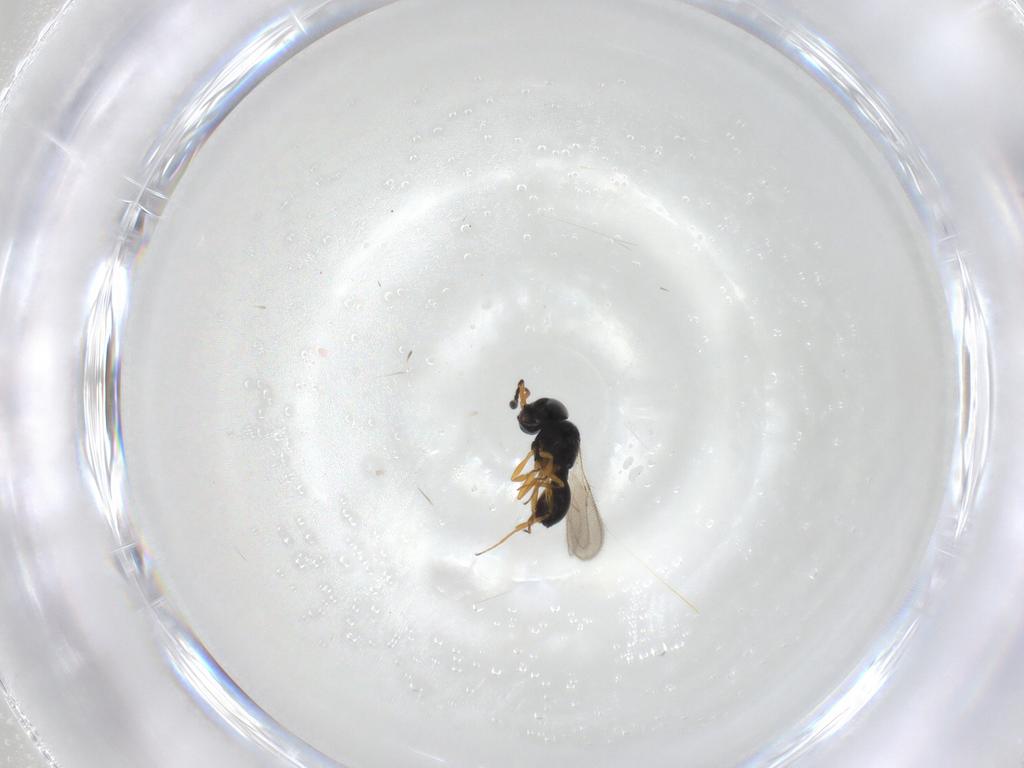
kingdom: Animalia
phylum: Arthropoda
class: Insecta
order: Hymenoptera
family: Scelionidae
